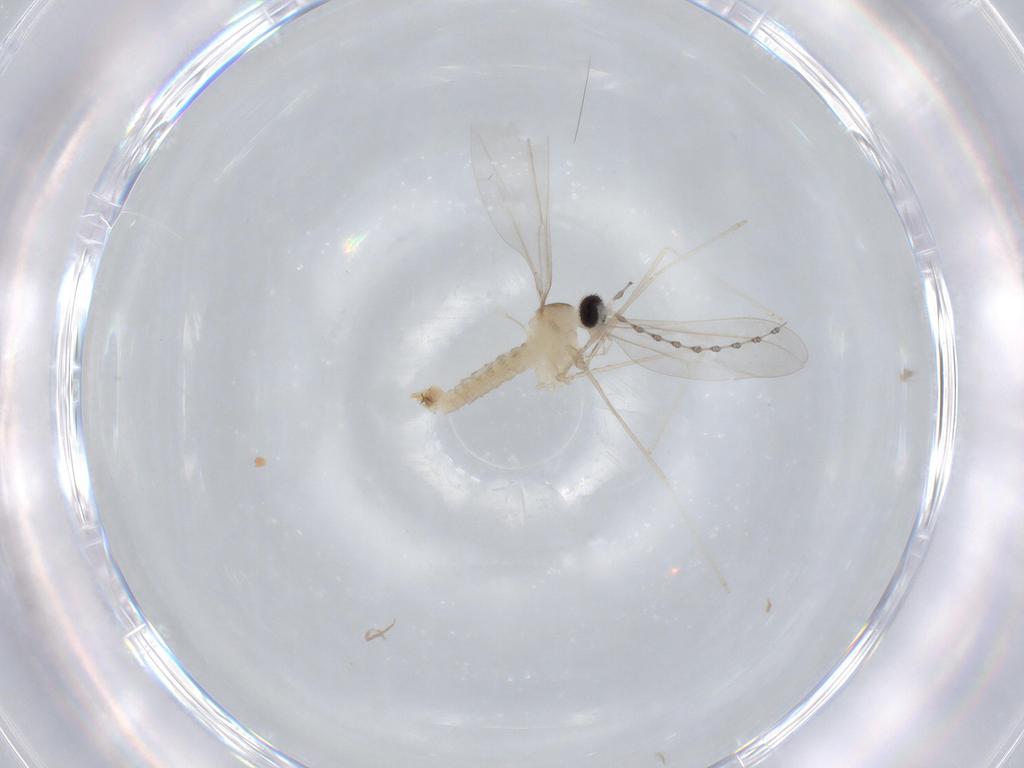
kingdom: Animalia
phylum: Arthropoda
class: Insecta
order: Diptera
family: Cecidomyiidae
